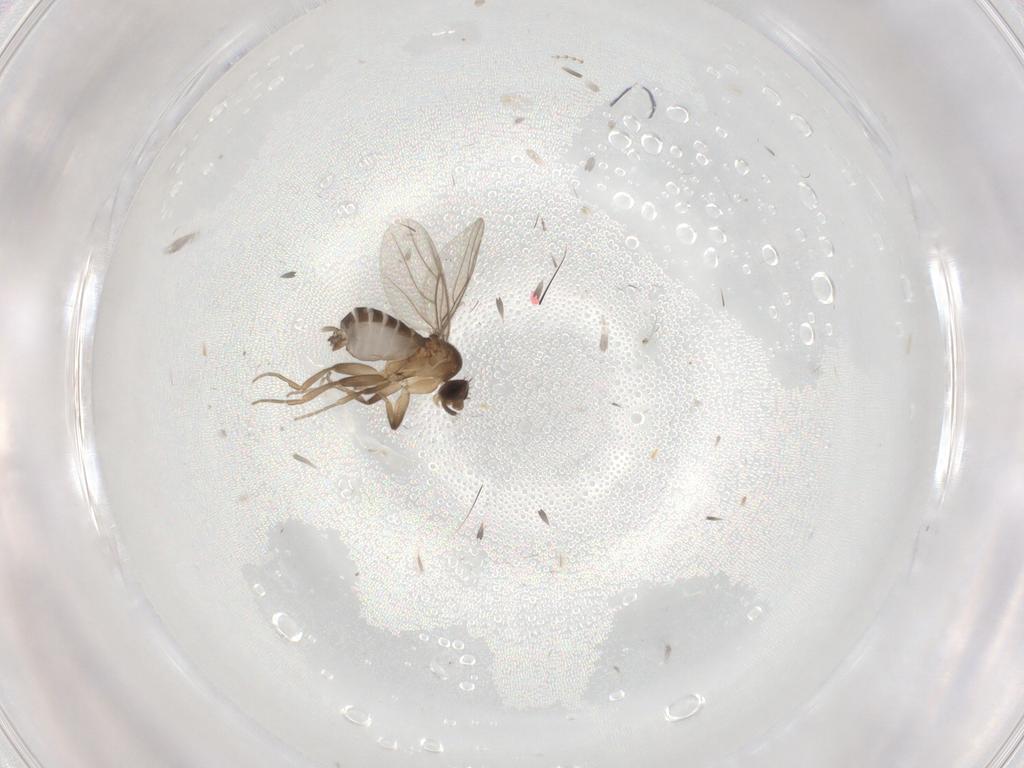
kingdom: Animalia
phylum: Arthropoda
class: Insecta
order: Diptera
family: Phoridae
